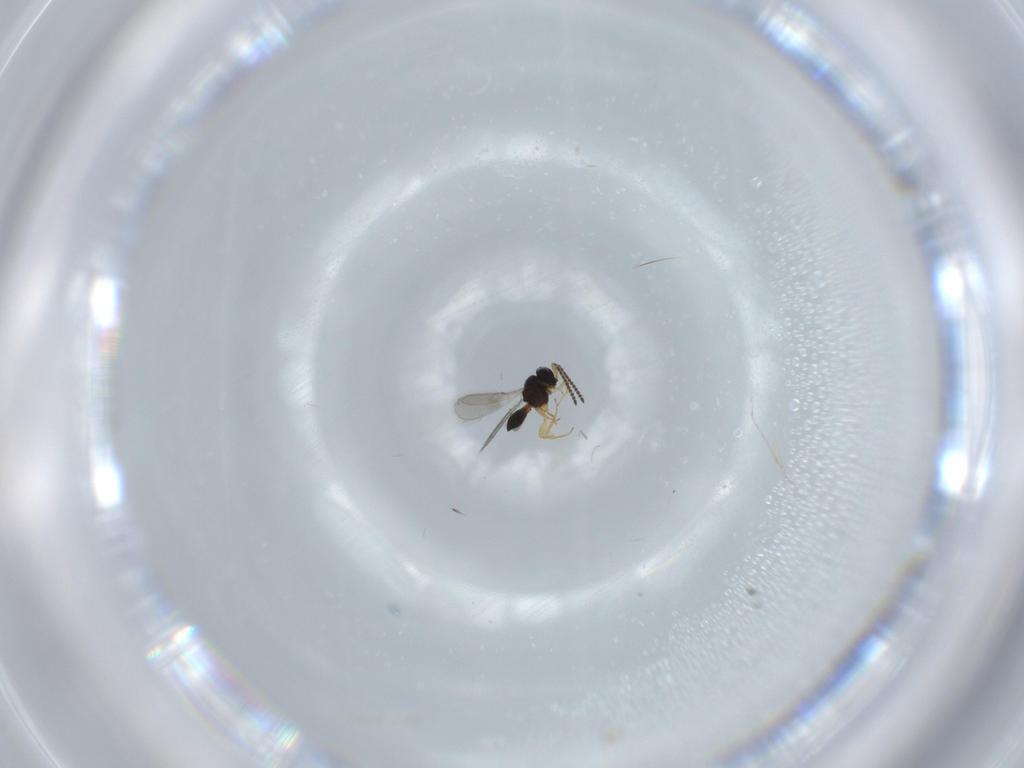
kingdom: Animalia
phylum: Arthropoda
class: Insecta
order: Hymenoptera
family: Scelionidae
